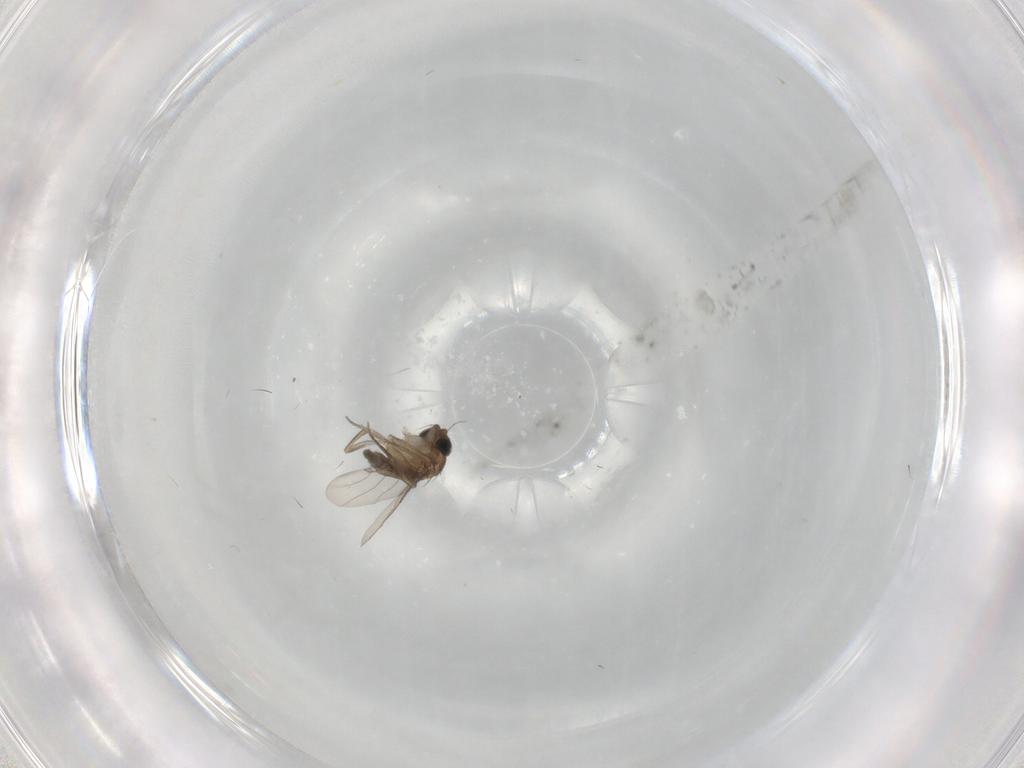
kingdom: Animalia
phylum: Arthropoda
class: Insecta
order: Diptera
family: Phoridae
